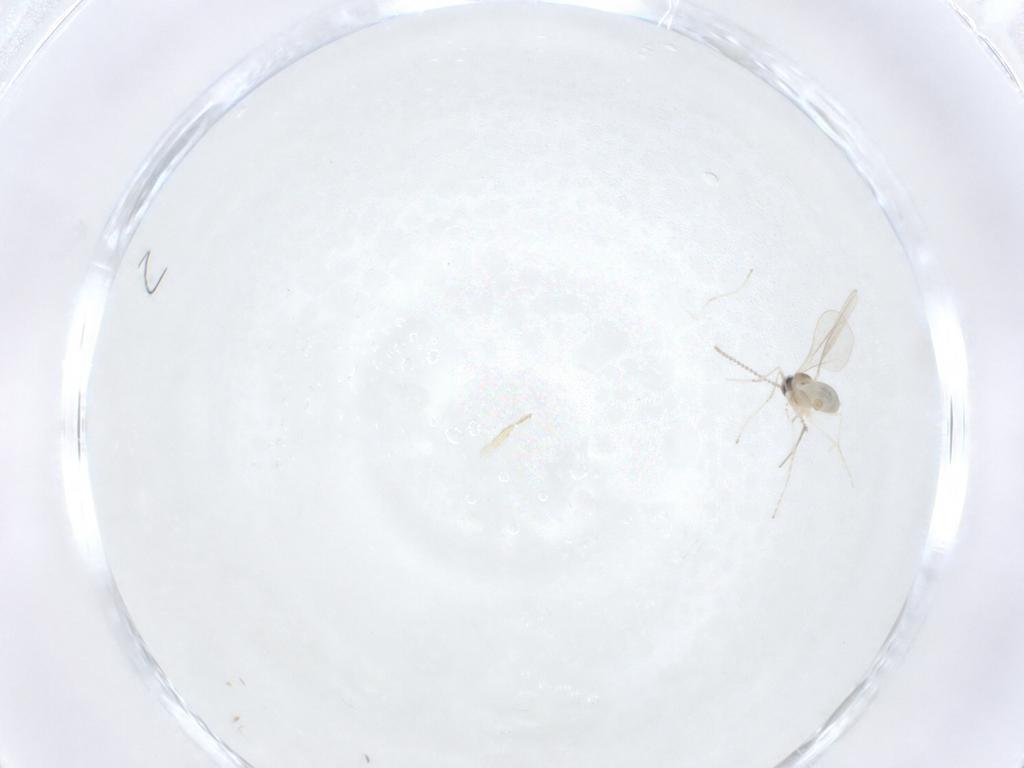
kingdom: Animalia
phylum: Arthropoda
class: Insecta
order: Diptera
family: Cecidomyiidae
